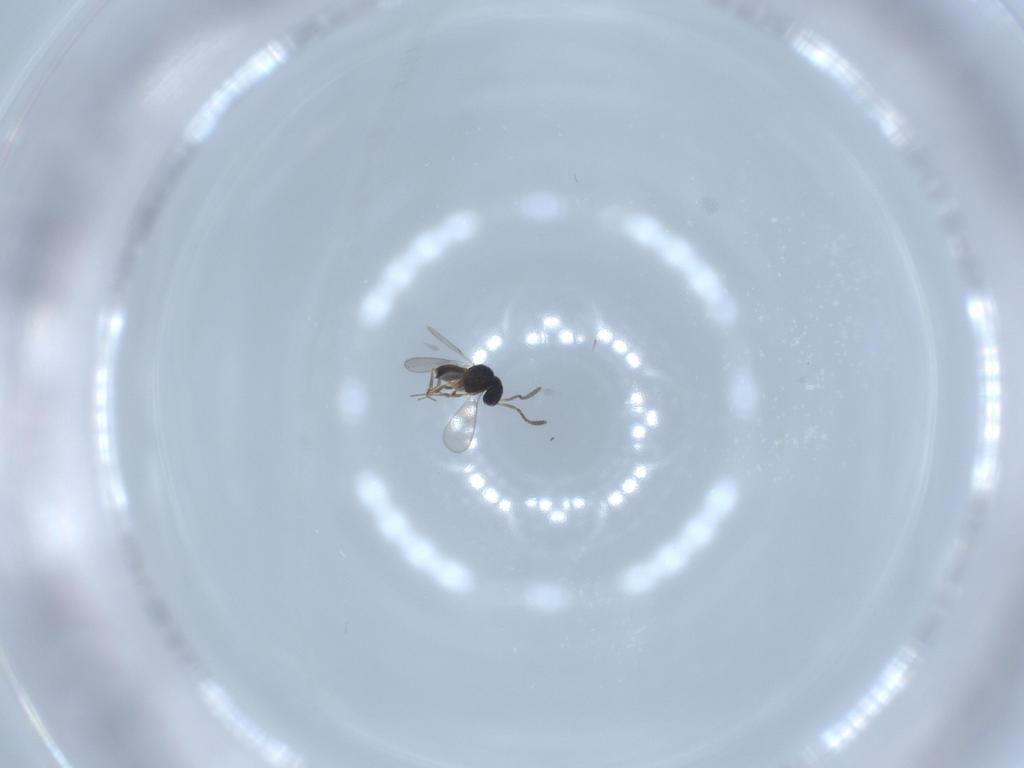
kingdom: Animalia
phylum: Arthropoda
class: Insecta
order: Hymenoptera
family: Scelionidae
